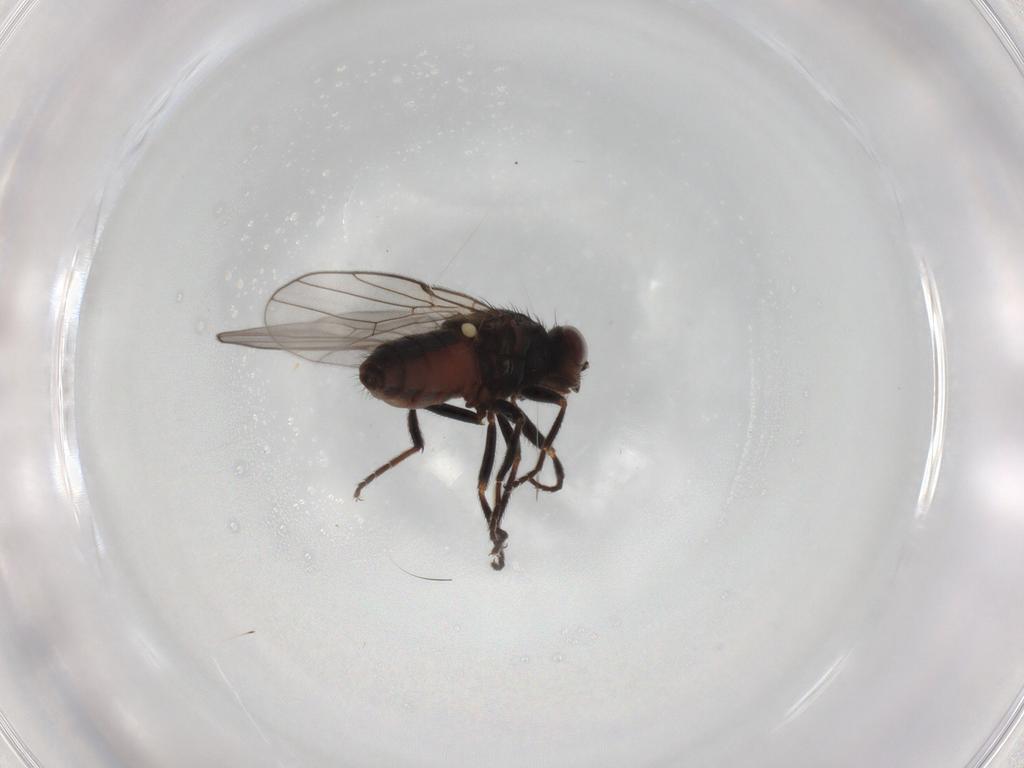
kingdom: Animalia
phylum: Arthropoda
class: Insecta
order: Diptera
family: Chloropidae
